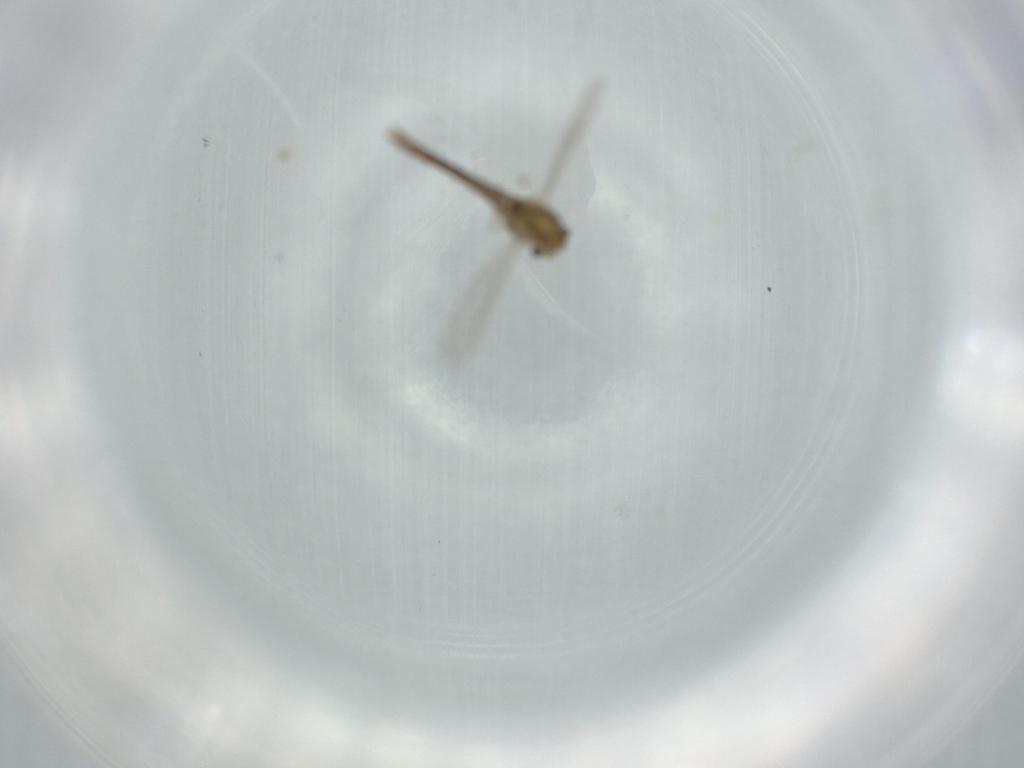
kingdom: Animalia
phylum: Arthropoda
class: Insecta
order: Diptera
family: Chironomidae
